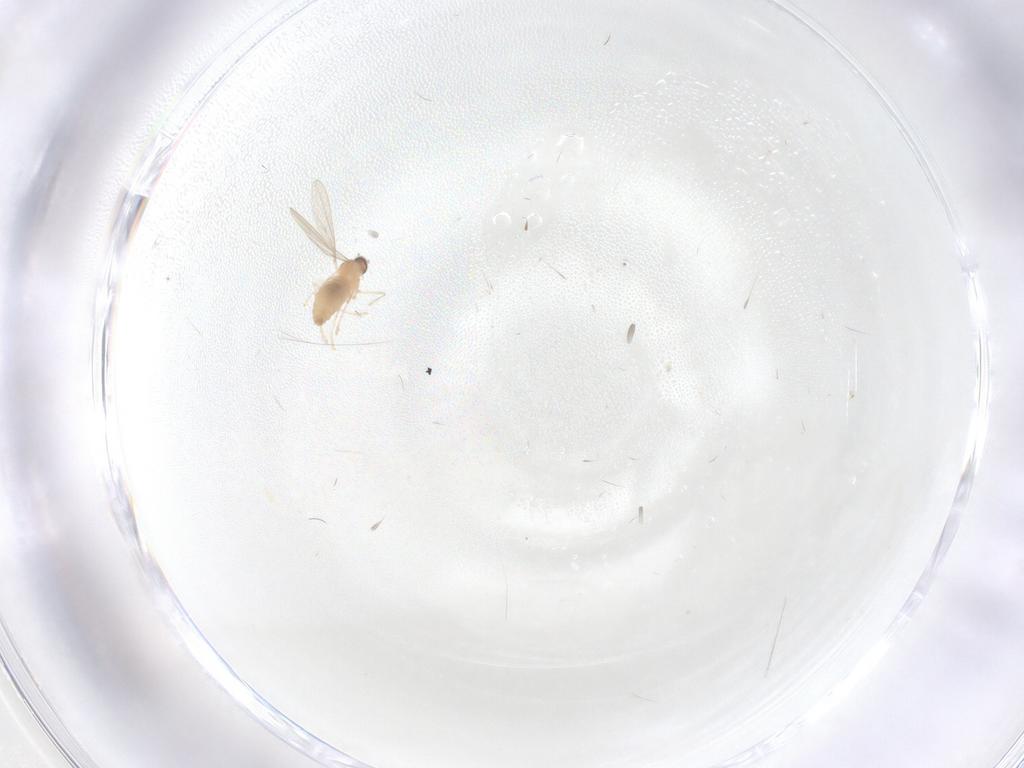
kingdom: Animalia
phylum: Arthropoda
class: Insecta
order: Diptera
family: Cecidomyiidae
